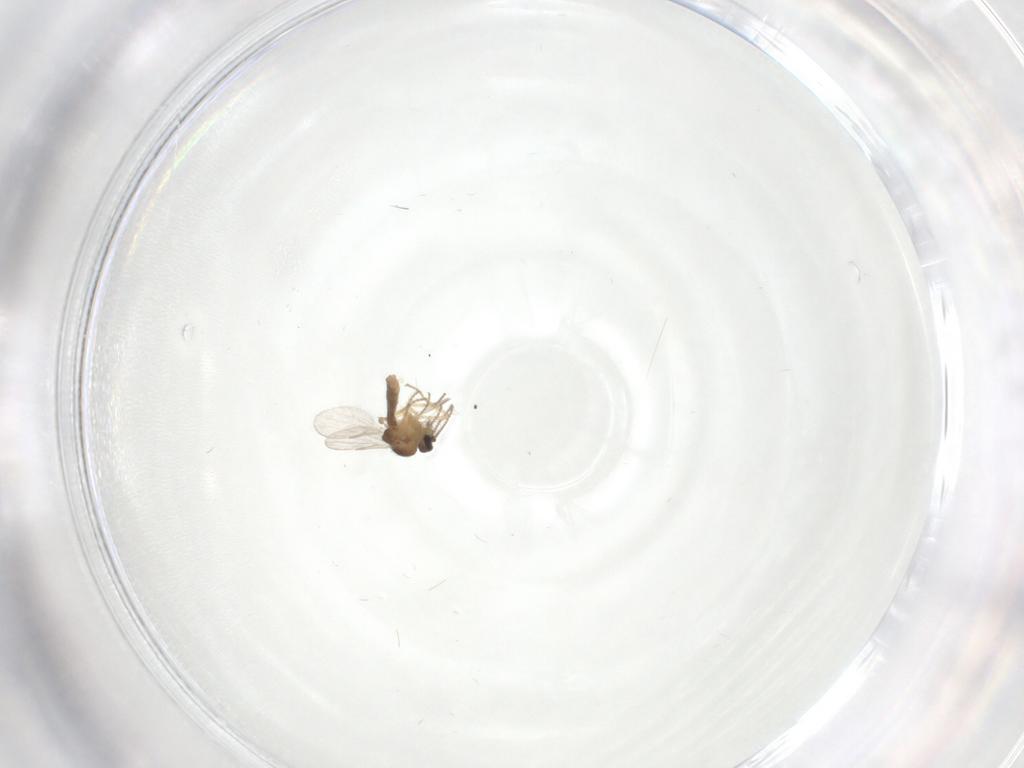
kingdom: Animalia
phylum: Arthropoda
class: Insecta
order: Diptera
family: Ceratopogonidae
